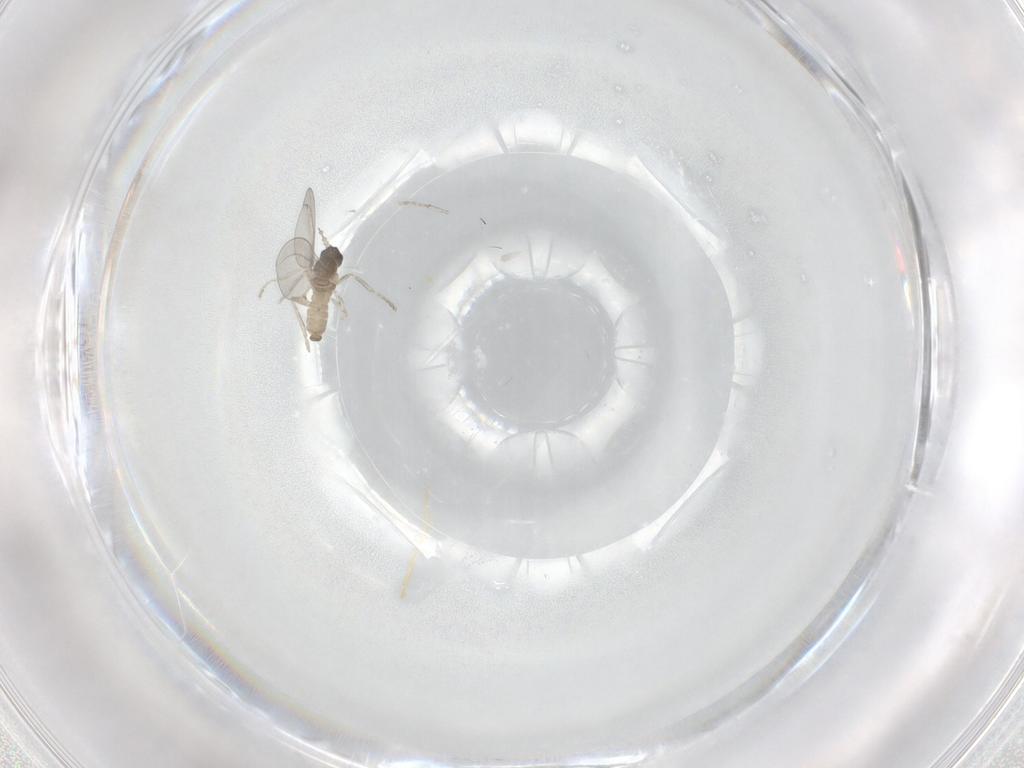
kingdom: Animalia
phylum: Arthropoda
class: Insecta
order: Diptera
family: Cecidomyiidae
